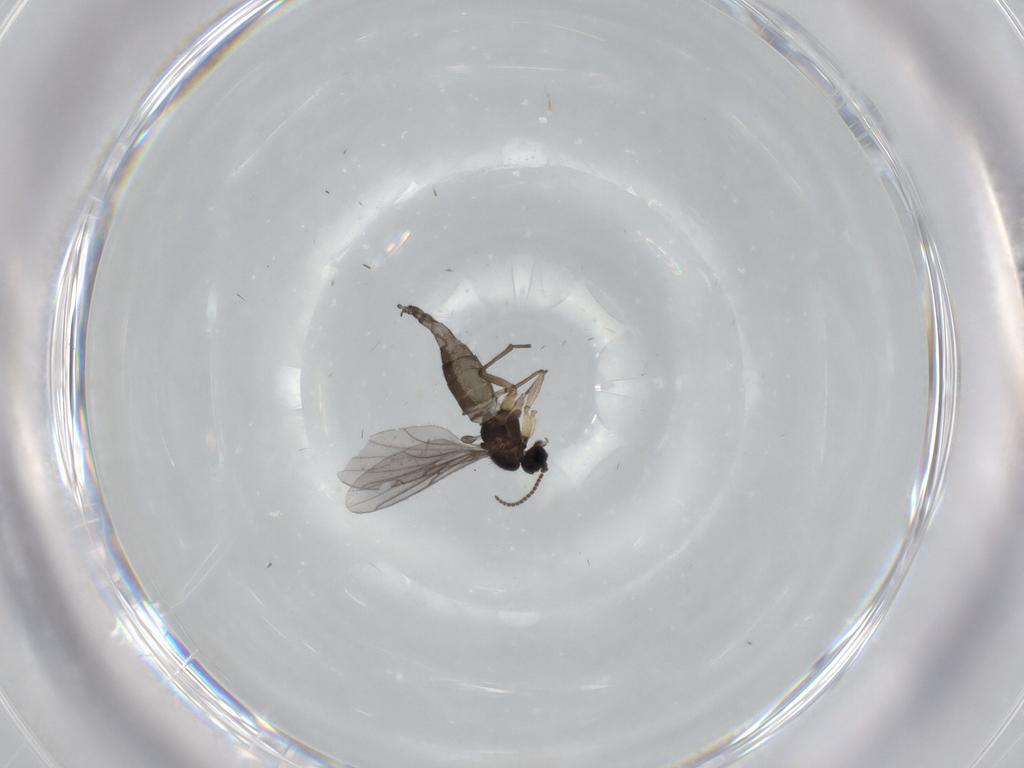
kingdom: Animalia
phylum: Arthropoda
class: Insecta
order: Diptera
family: Sciaridae
